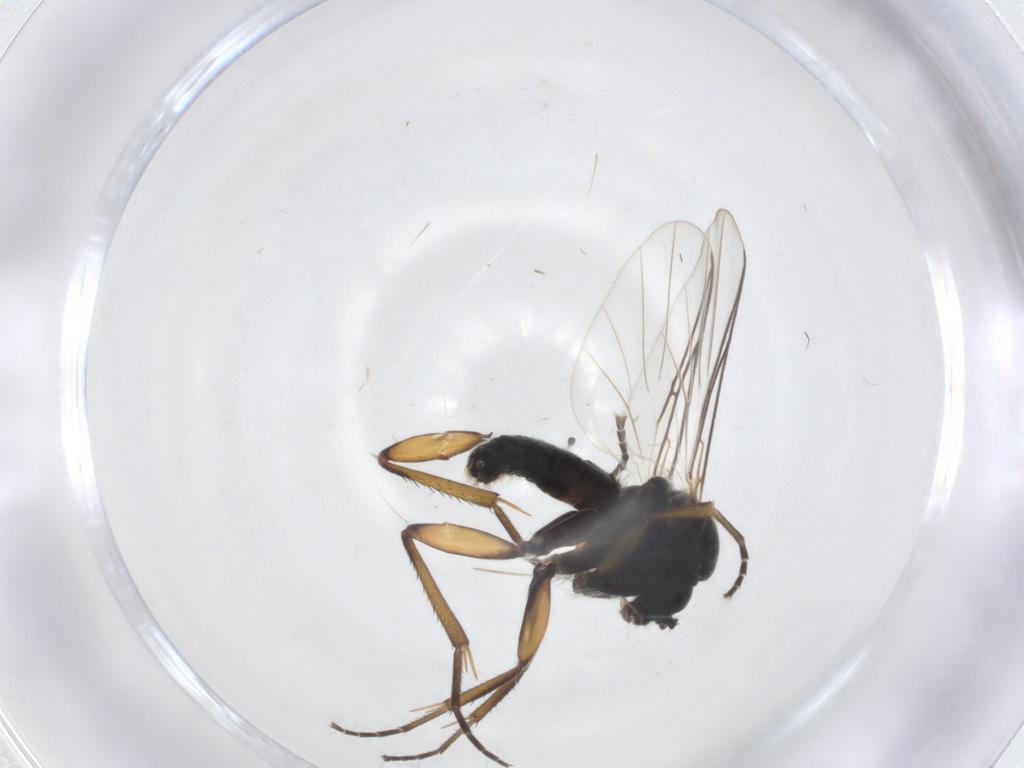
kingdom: Animalia
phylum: Arthropoda
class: Insecta
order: Diptera
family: Mycetophilidae
